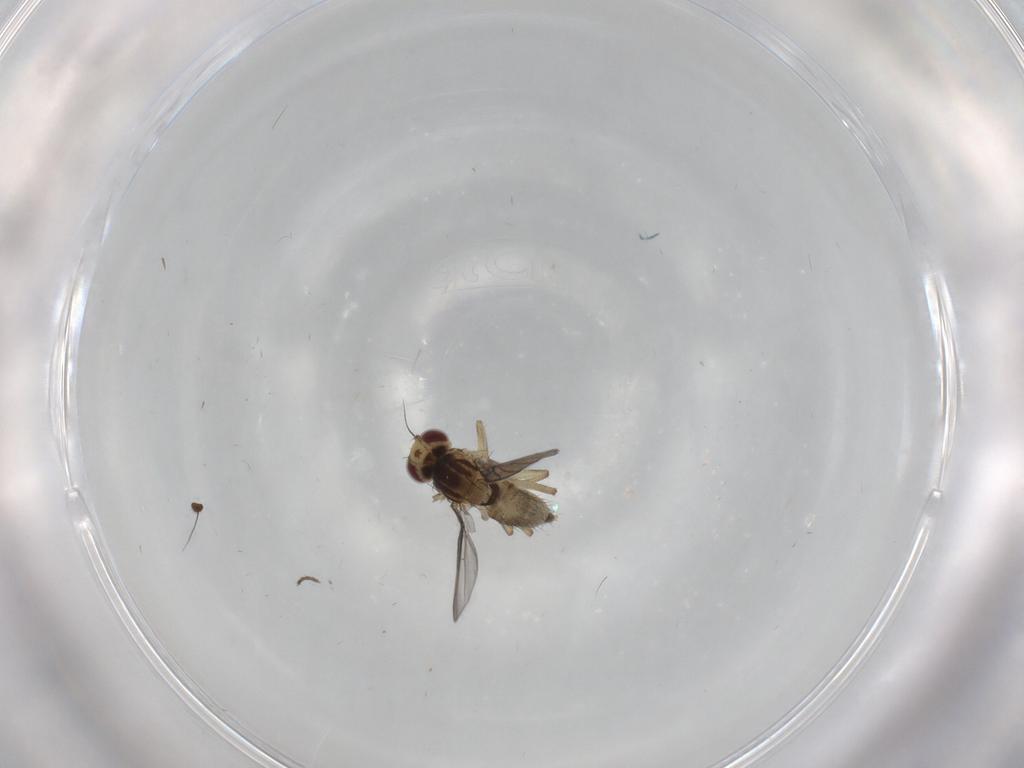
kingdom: Animalia
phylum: Arthropoda
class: Insecta
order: Diptera
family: Agromyzidae
